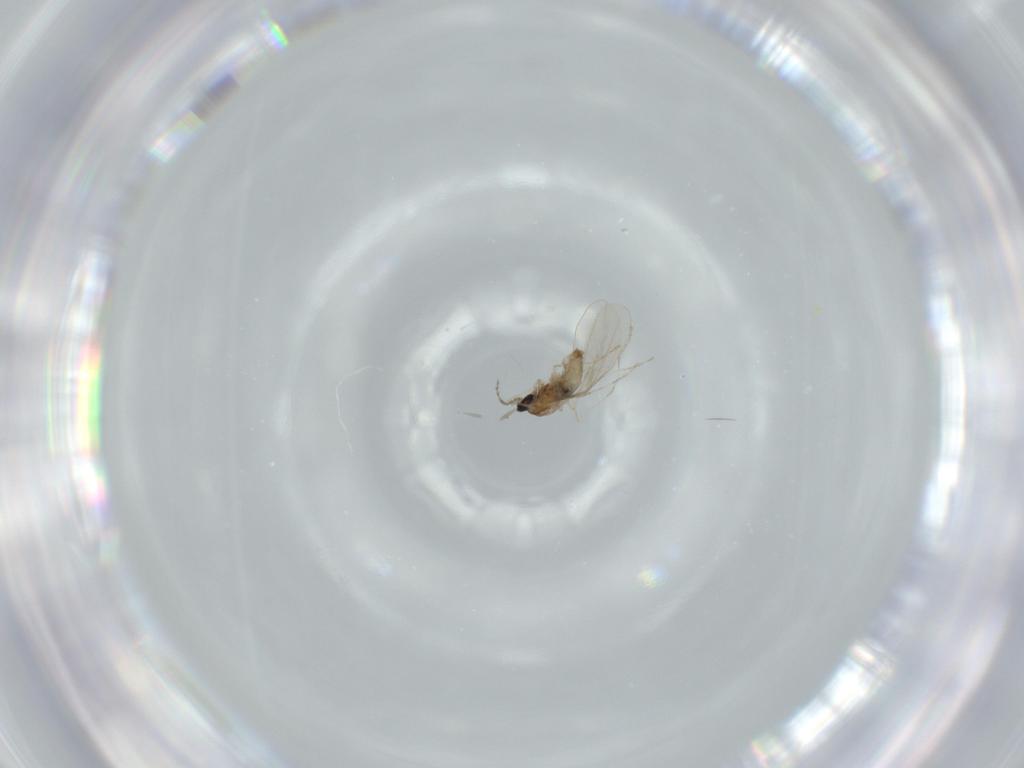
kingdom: Animalia
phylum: Arthropoda
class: Insecta
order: Diptera
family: Cecidomyiidae
